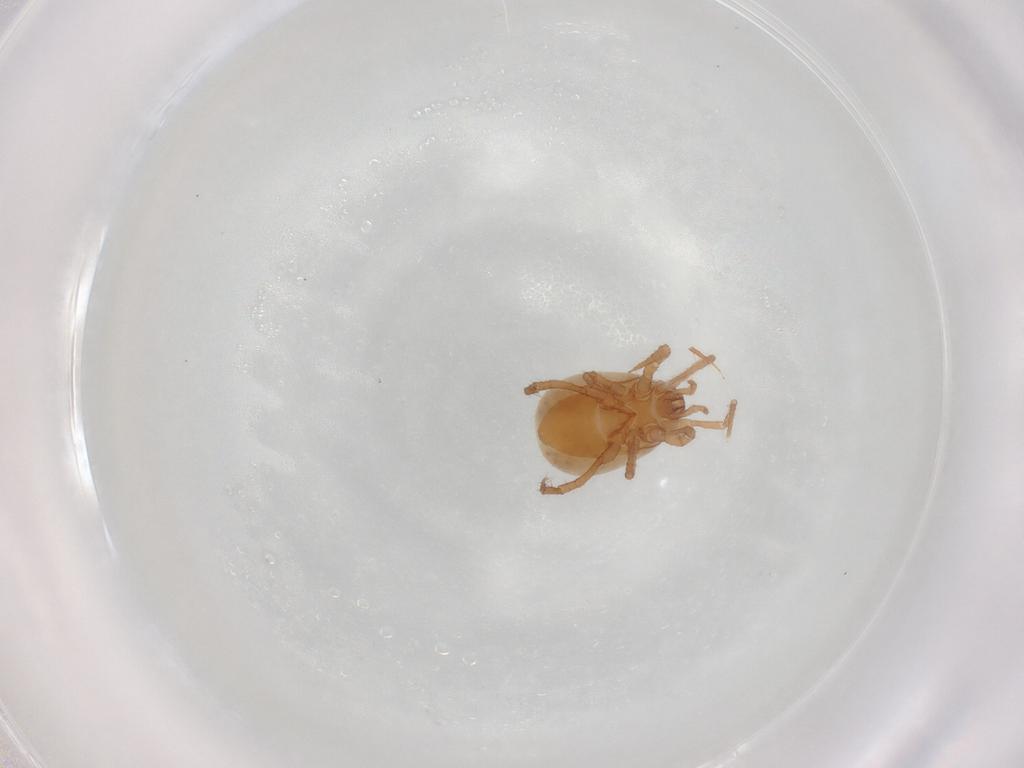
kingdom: Animalia
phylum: Arthropoda
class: Arachnida
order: Mesostigmata
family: Parasitidae
